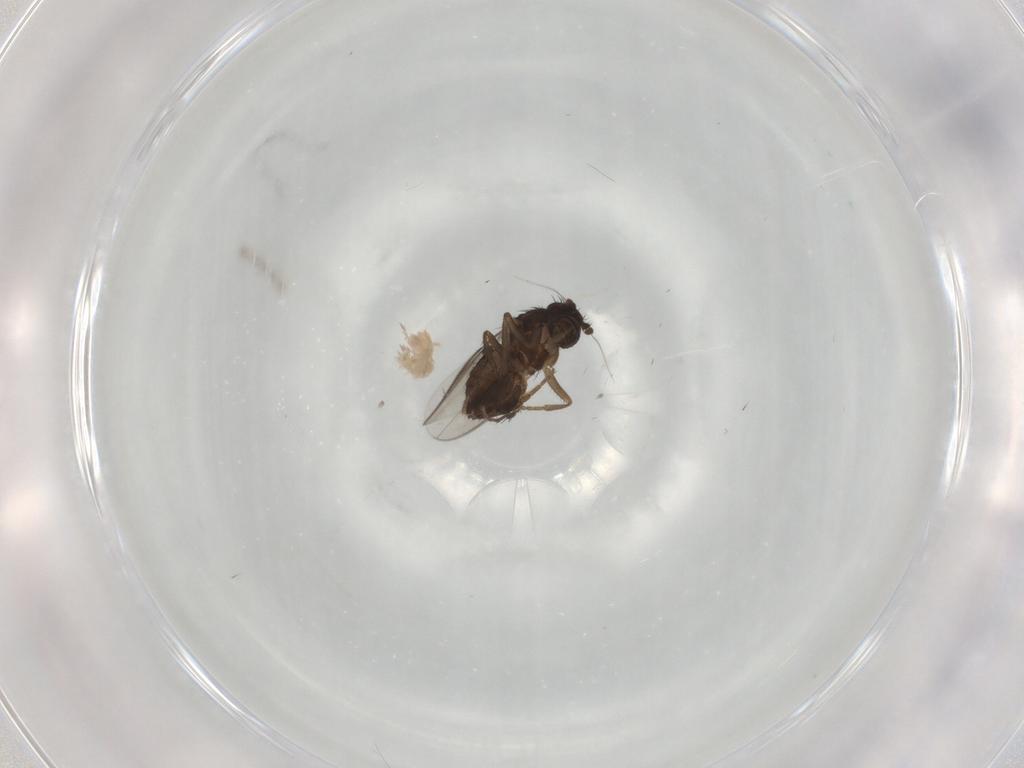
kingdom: Animalia
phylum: Arthropoda
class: Insecta
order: Diptera
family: Sphaeroceridae
